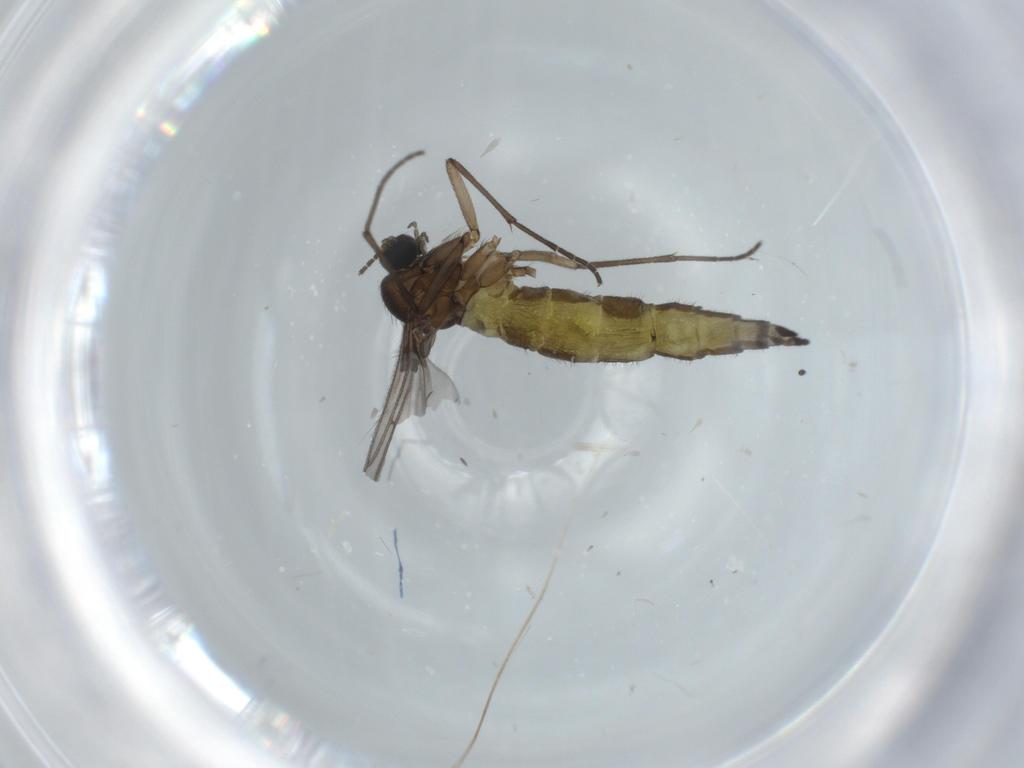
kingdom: Animalia
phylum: Arthropoda
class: Insecta
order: Diptera
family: Sciaridae
